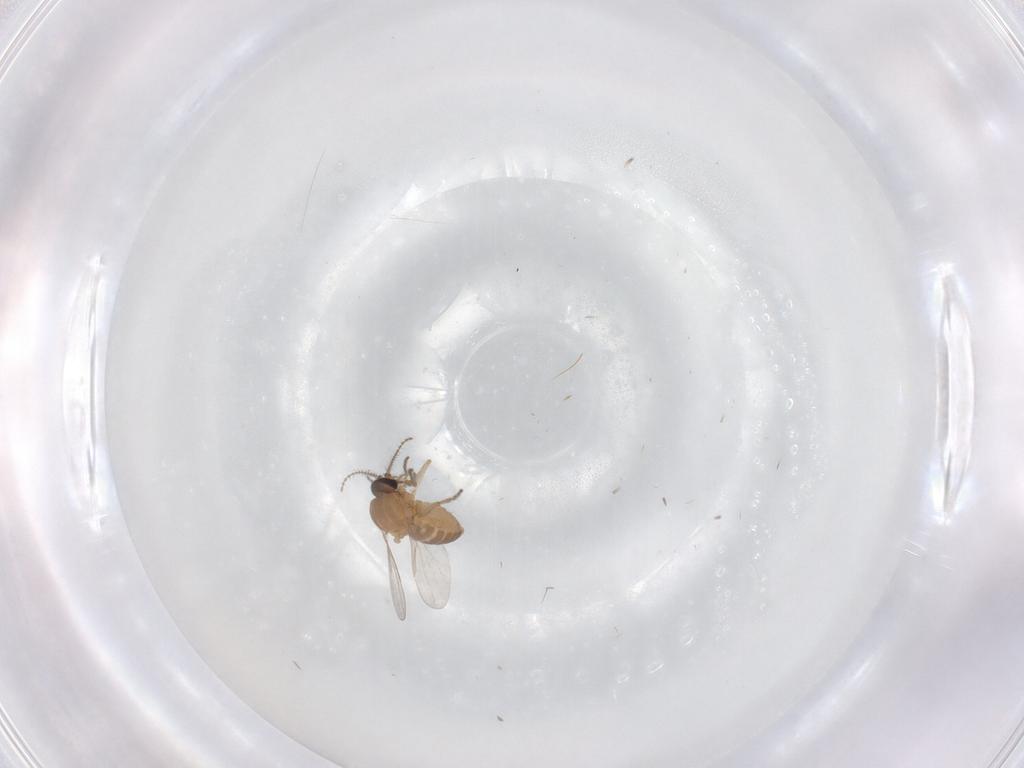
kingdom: Animalia
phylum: Arthropoda
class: Insecta
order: Diptera
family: Ceratopogonidae
